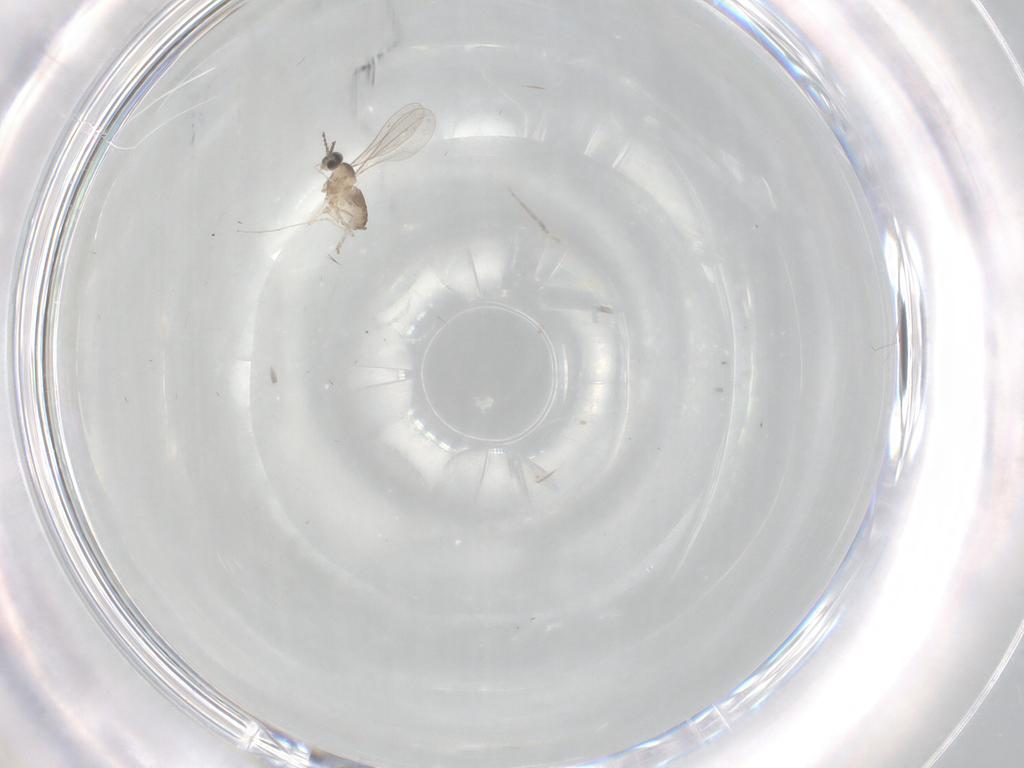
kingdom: Animalia
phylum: Arthropoda
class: Insecta
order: Diptera
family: Cecidomyiidae
